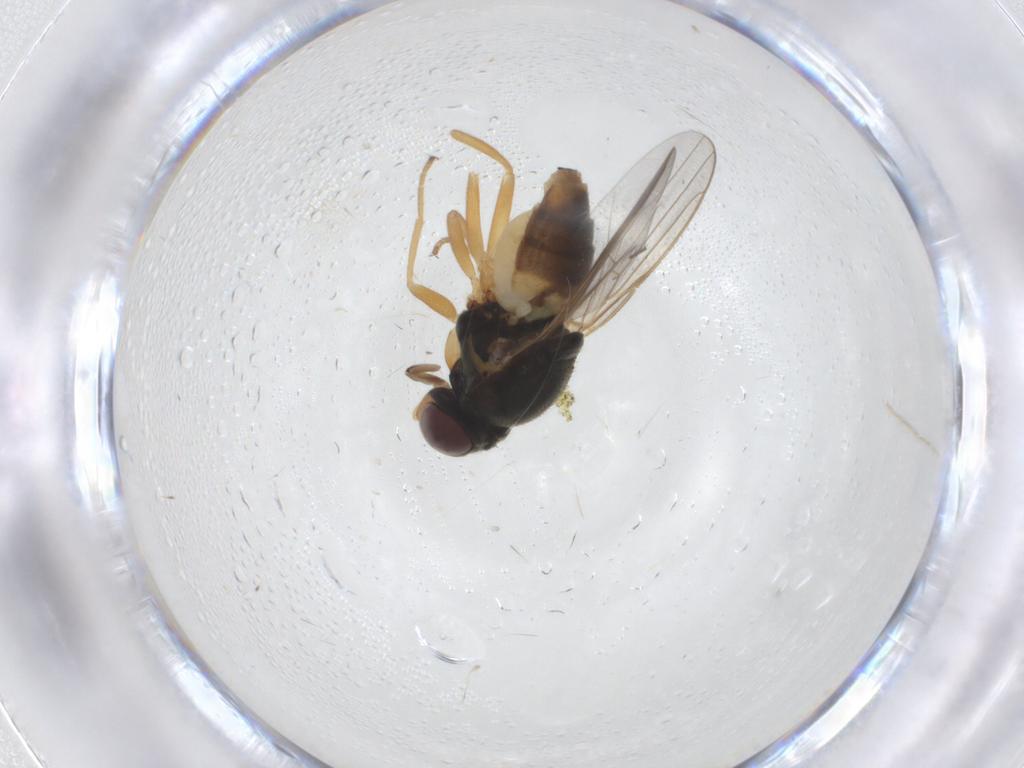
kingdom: Animalia
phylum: Arthropoda
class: Insecta
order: Diptera
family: Chloropidae
